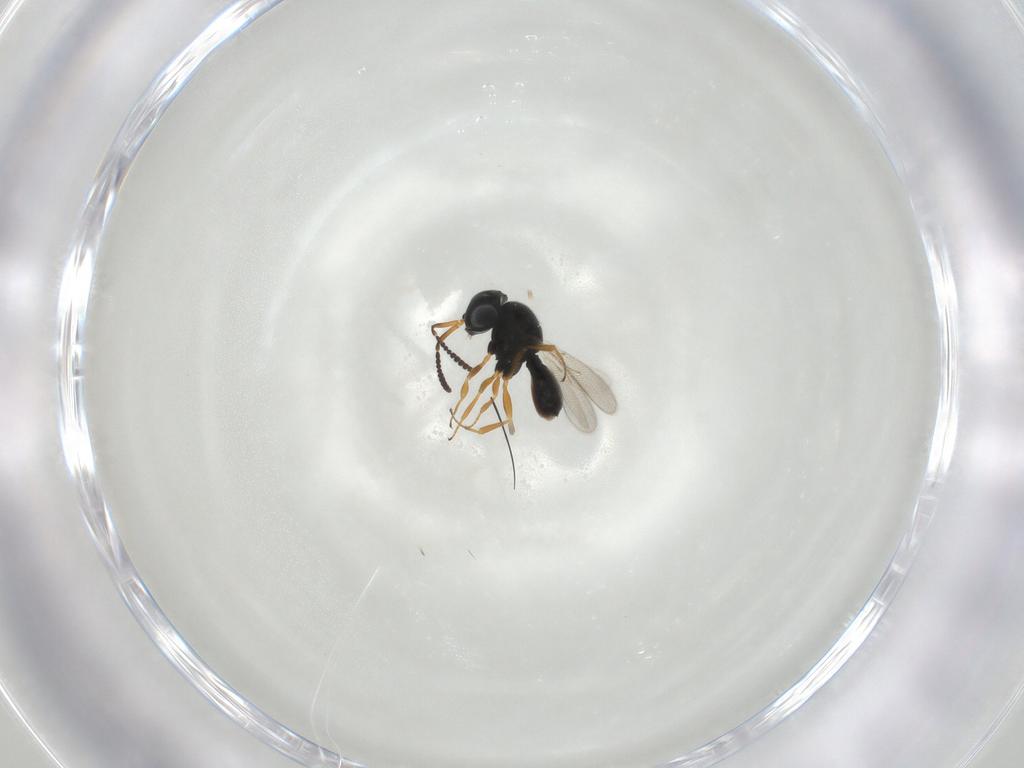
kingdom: Animalia
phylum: Arthropoda
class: Insecta
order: Hymenoptera
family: Scelionidae
